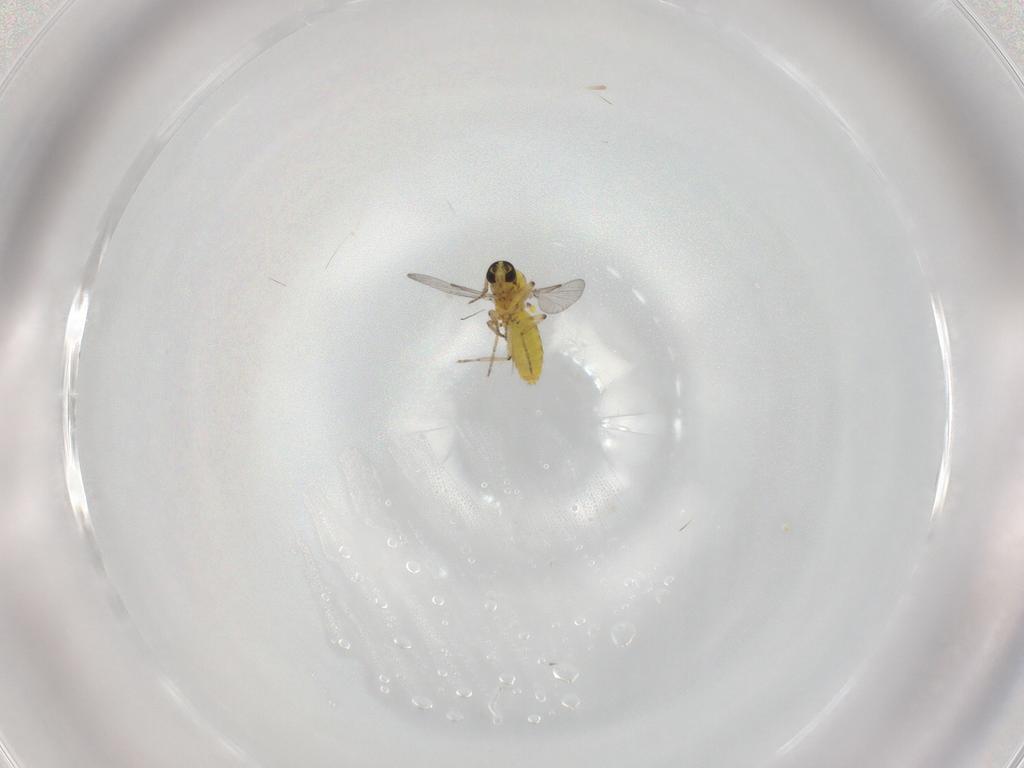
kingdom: Animalia
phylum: Arthropoda
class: Insecta
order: Diptera
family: Ceratopogonidae
